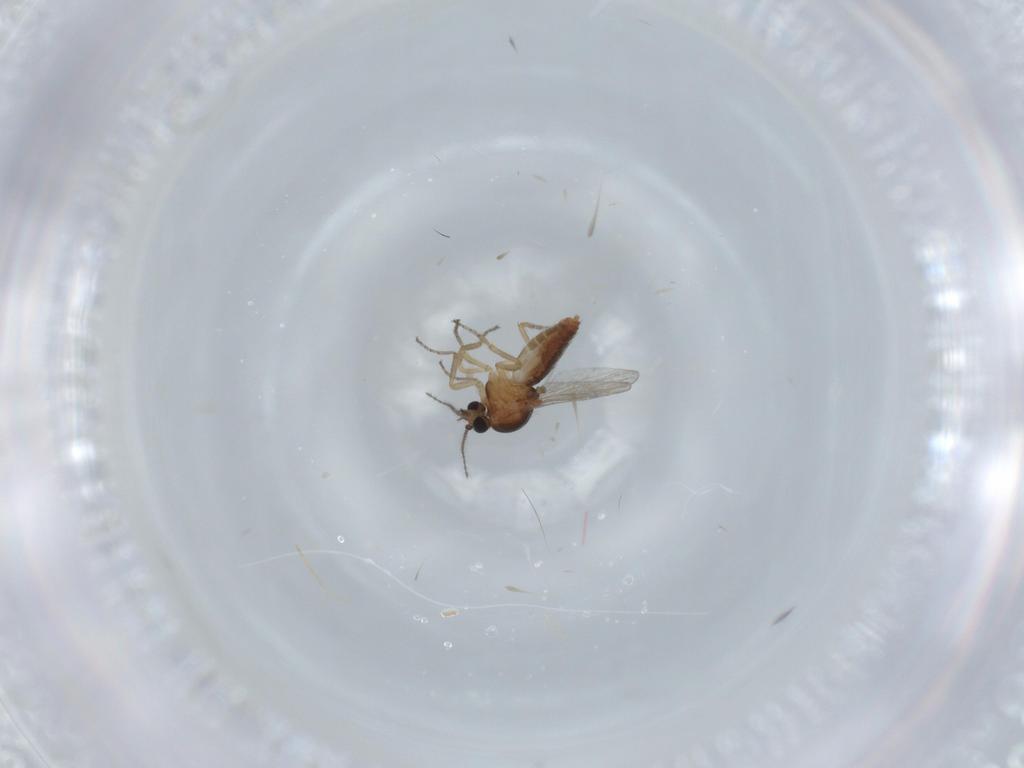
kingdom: Animalia
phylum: Arthropoda
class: Insecta
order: Diptera
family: Ceratopogonidae
